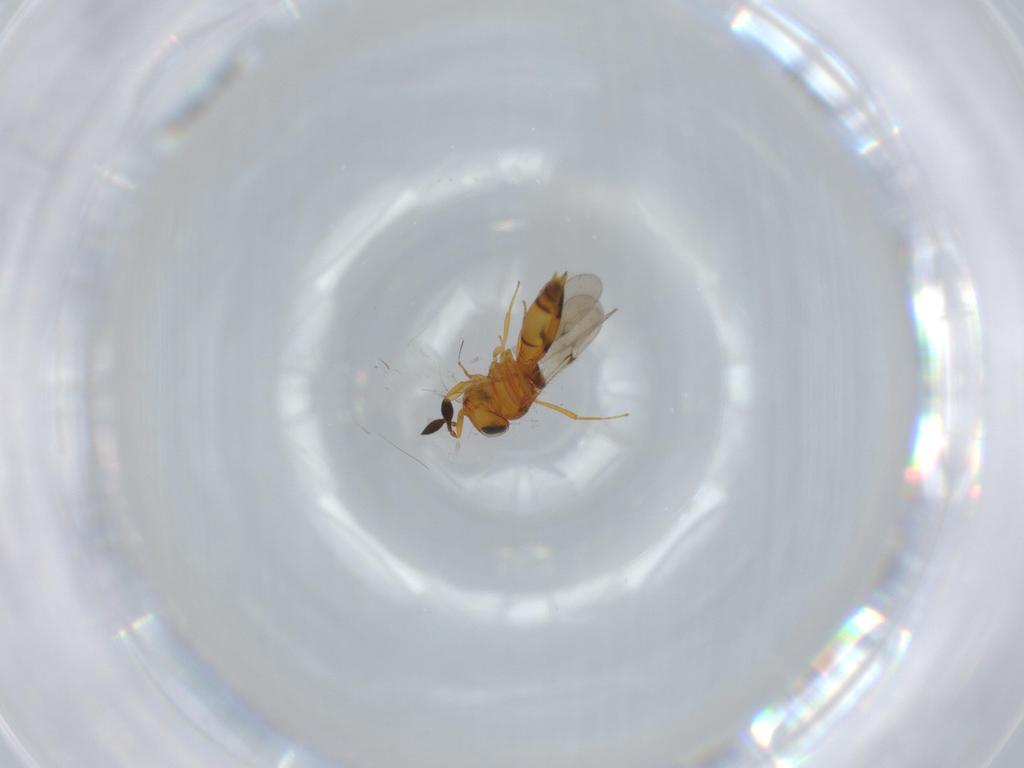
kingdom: Animalia
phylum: Arthropoda
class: Insecta
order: Hymenoptera
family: Scelionidae
